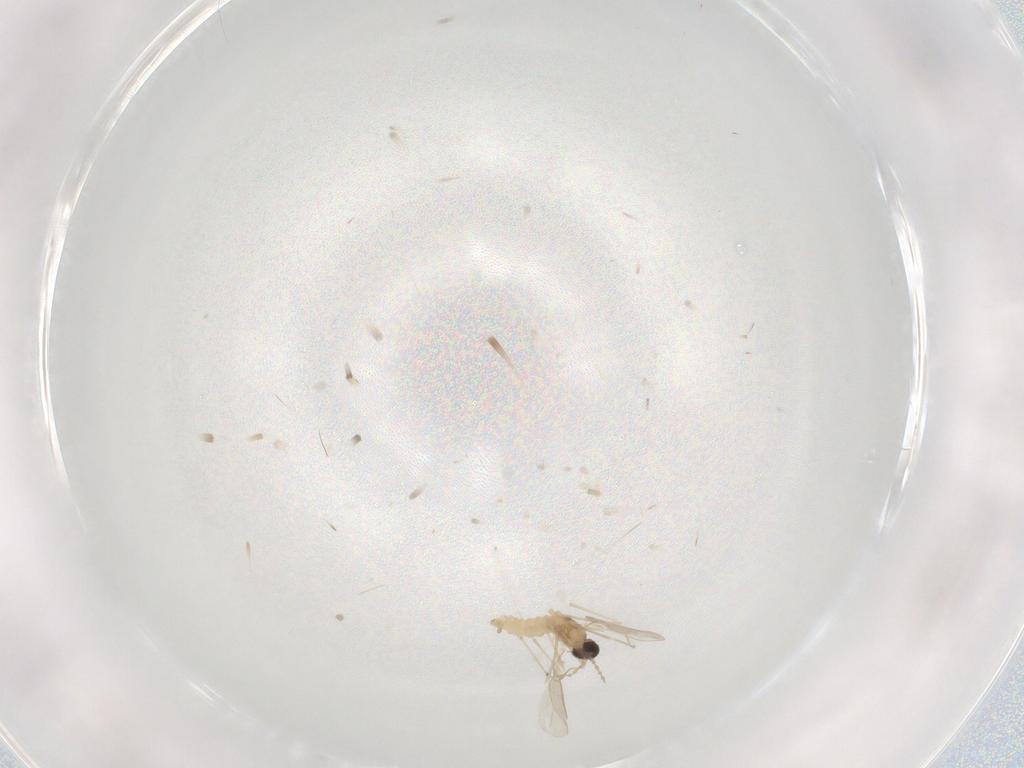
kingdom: Animalia
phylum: Arthropoda
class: Insecta
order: Diptera
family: Cecidomyiidae
